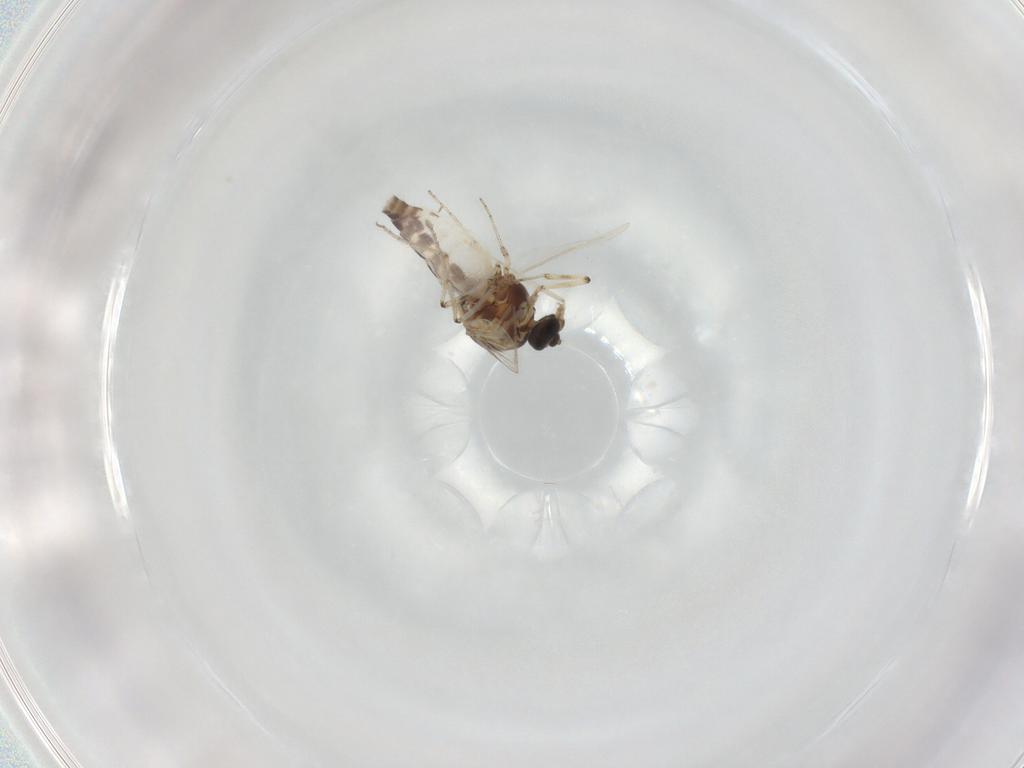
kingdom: Animalia
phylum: Arthropoda
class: Insecta
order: Diptera
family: Cecidomyiidae
